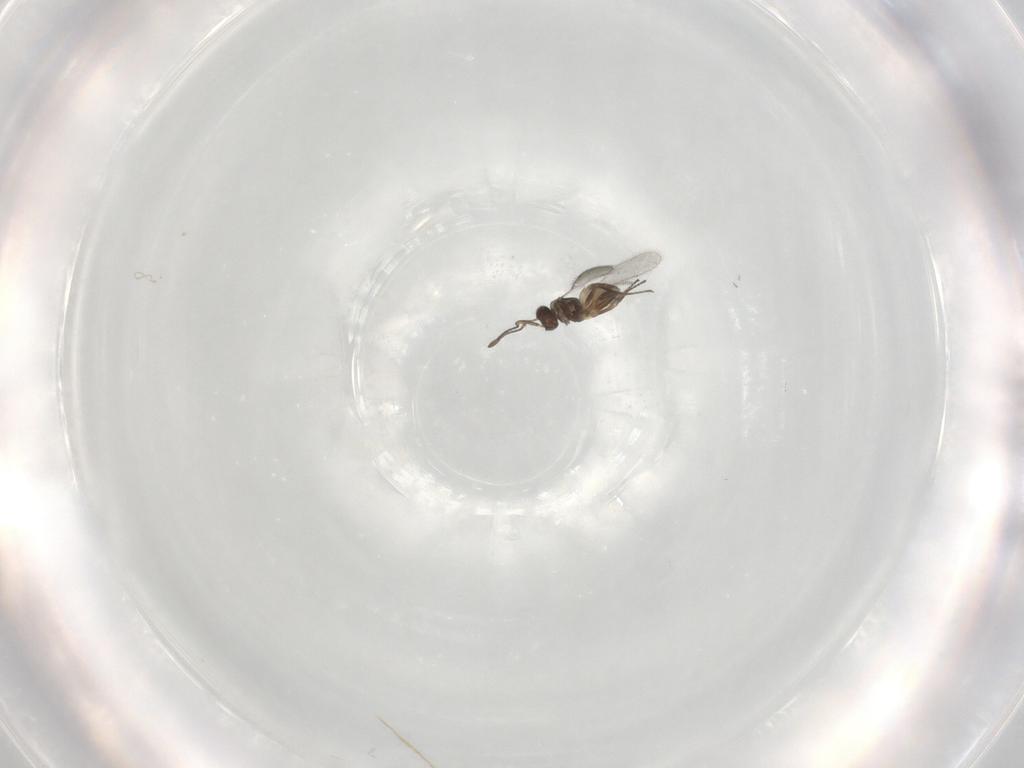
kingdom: Animalia
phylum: Arthropoda
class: Insecta
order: Hymenoptera
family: Mymaridae
